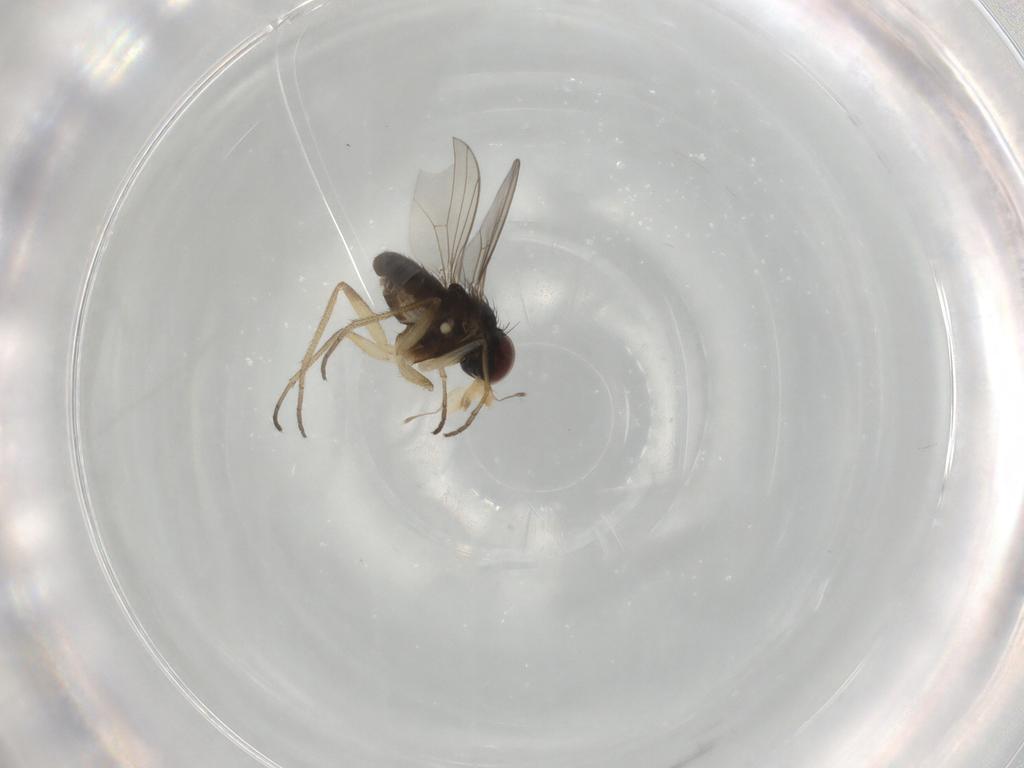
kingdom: Animalia
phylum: Arthropoda
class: Insecta
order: Diptera
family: Dolichopodidae
